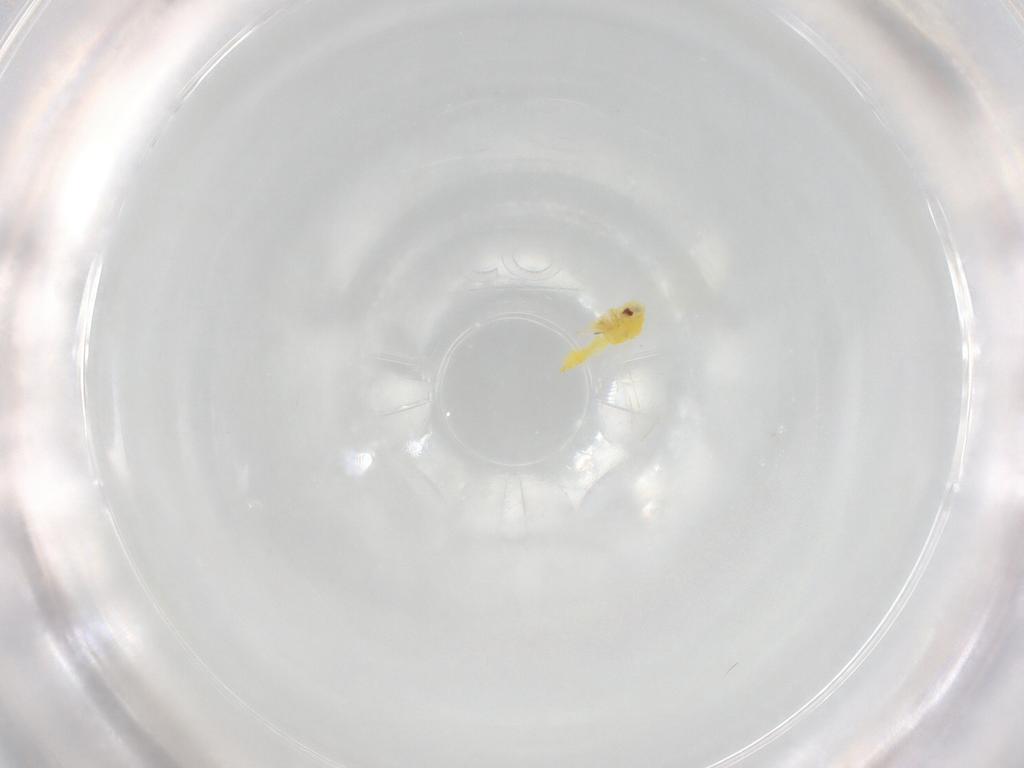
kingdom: Animalia
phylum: Arthropoda
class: Insecta
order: Hemiptera
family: Aleyrodidae
